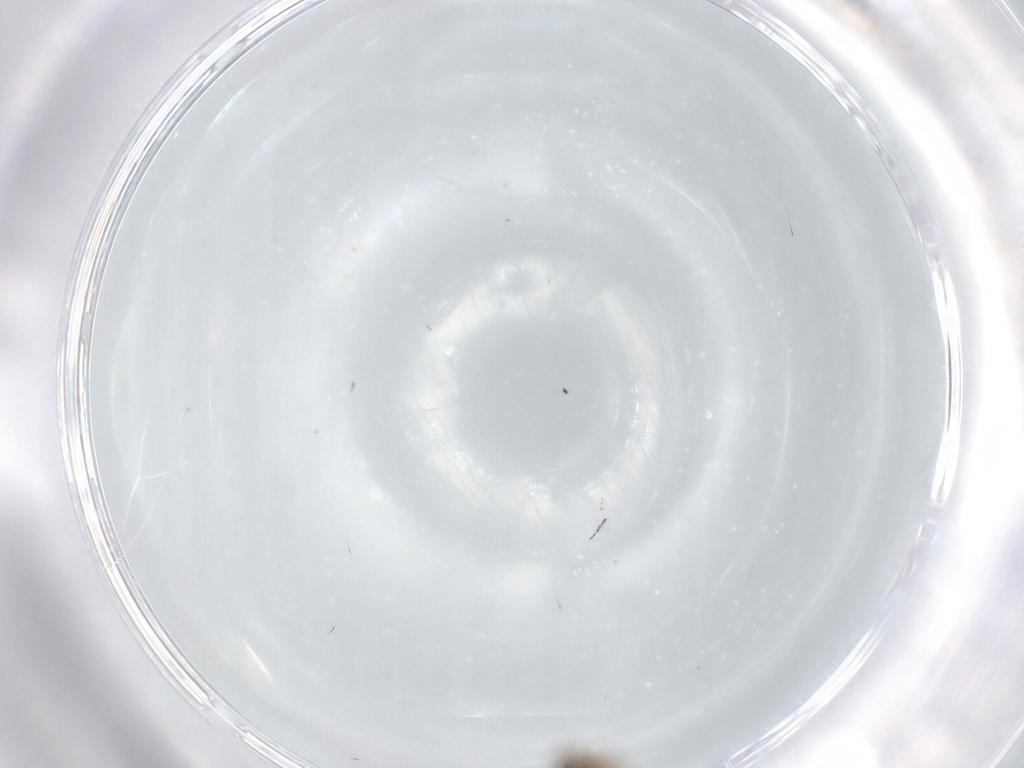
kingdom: Animalia
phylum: Arthropoda
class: Insecta
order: Diptera
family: Ceratopogonidae
